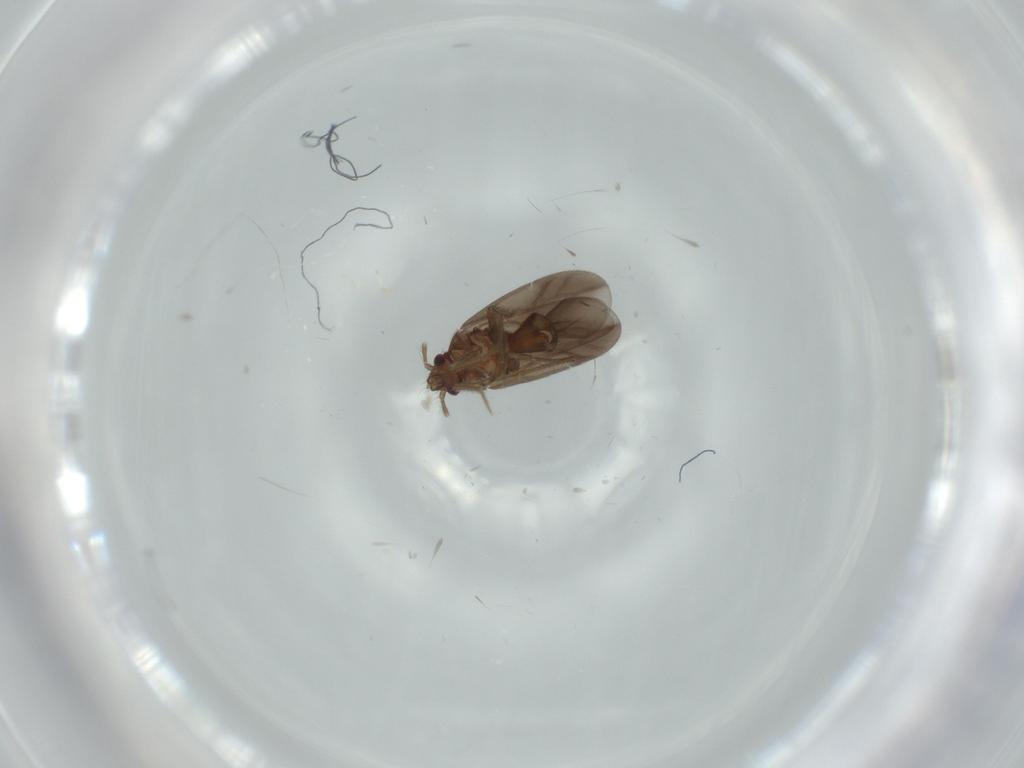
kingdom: Animalia
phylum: Arthropoda
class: Insecta
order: Hemiptera
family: Ceratocombidae
